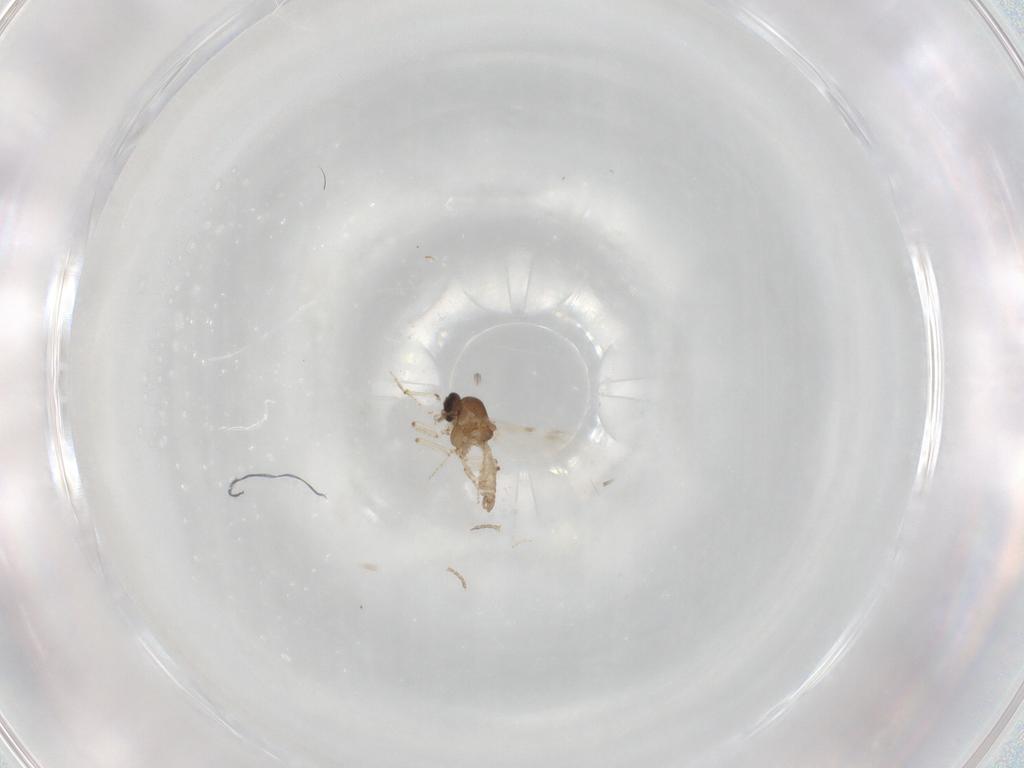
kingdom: Animalia
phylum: Arthropoda
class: Insecta
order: Diptera
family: Ceratopogonidae
